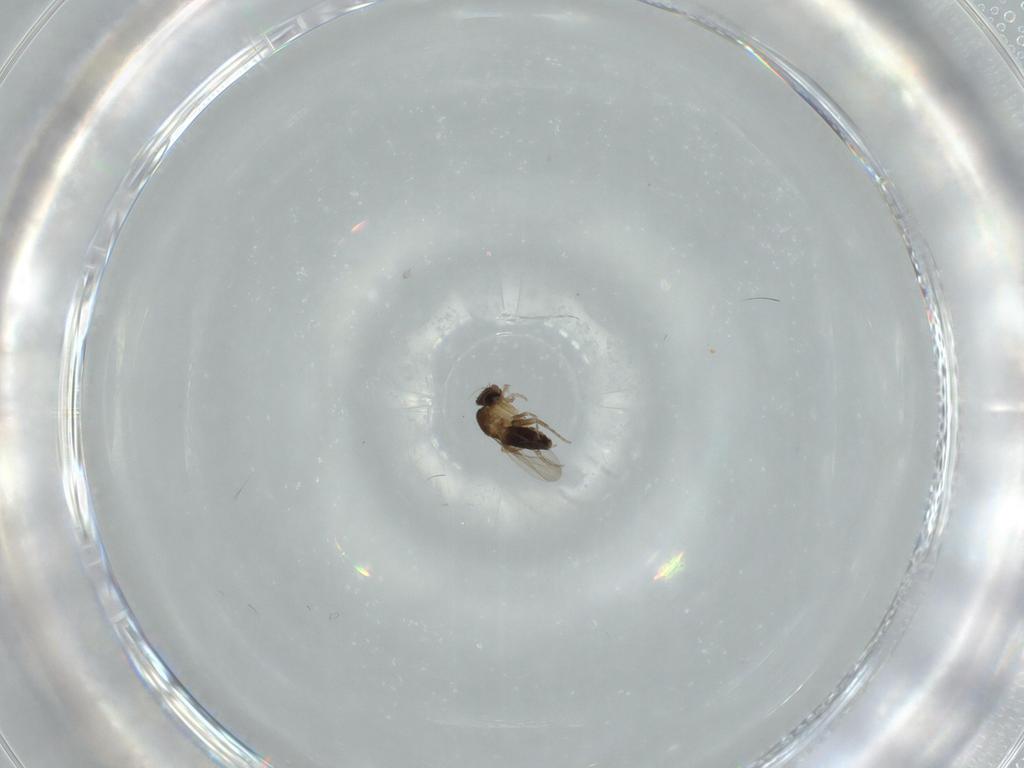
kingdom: Animalia
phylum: Arthropoda
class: Insecta
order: Diptera
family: Phoridae
